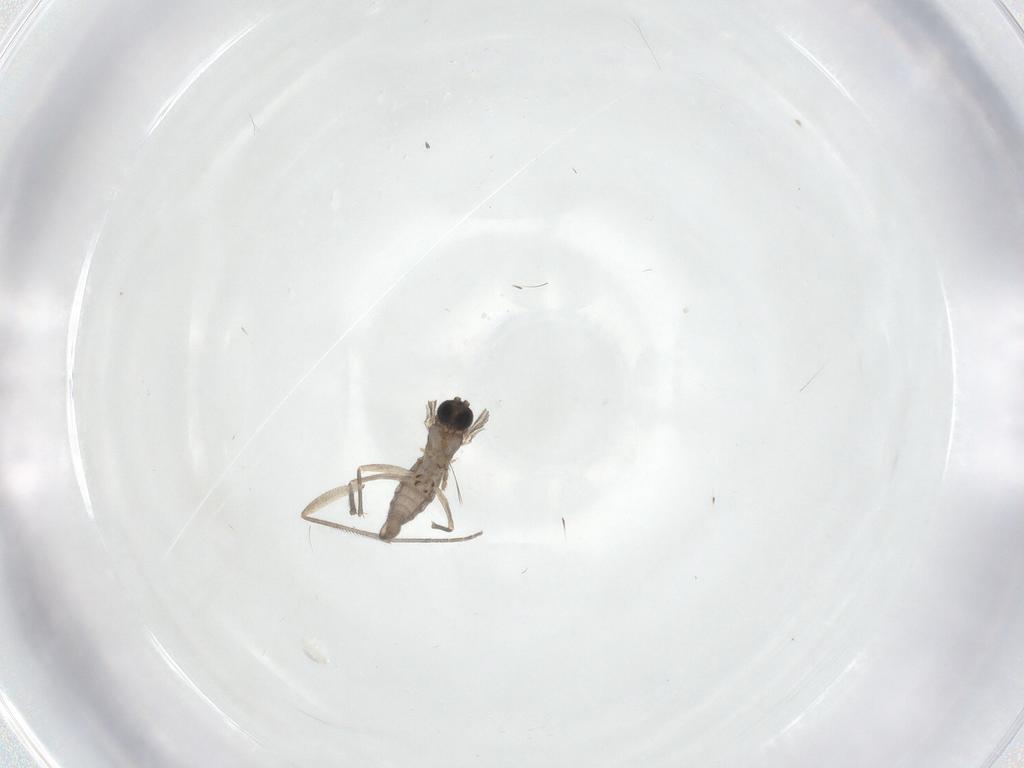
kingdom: Animalia
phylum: Arthropoda
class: Insecta
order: Diptera
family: Sciaridae
